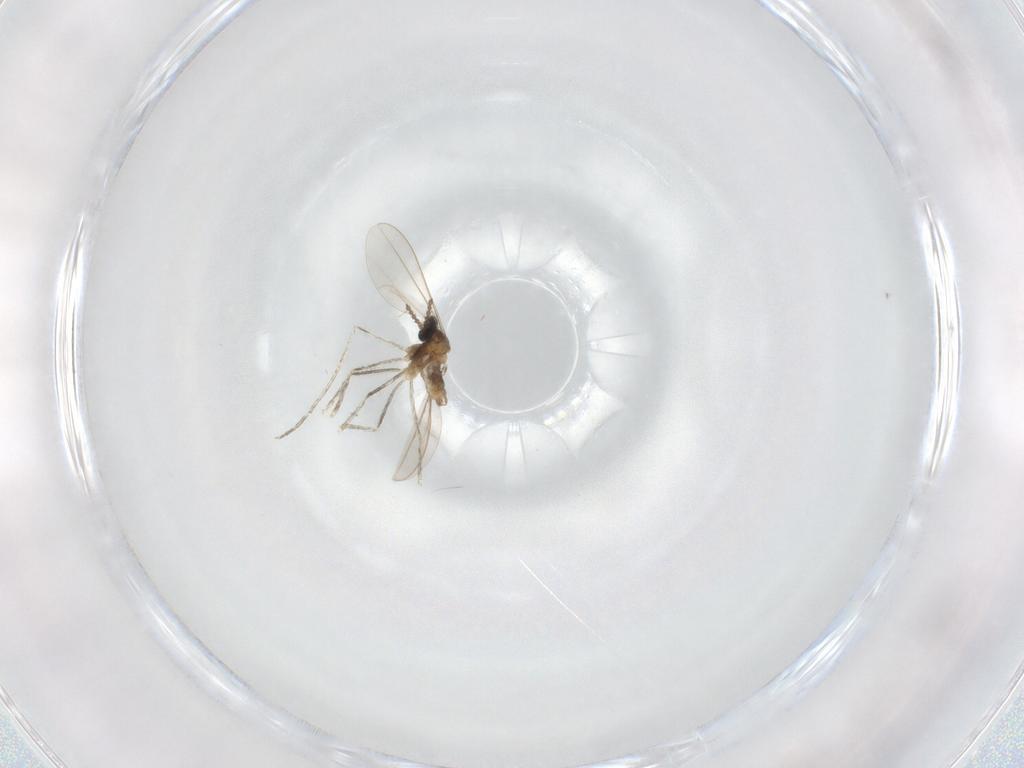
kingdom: Animalia
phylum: Arthropoda
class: Insecta
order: Diptera
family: Cecidomyiidae
